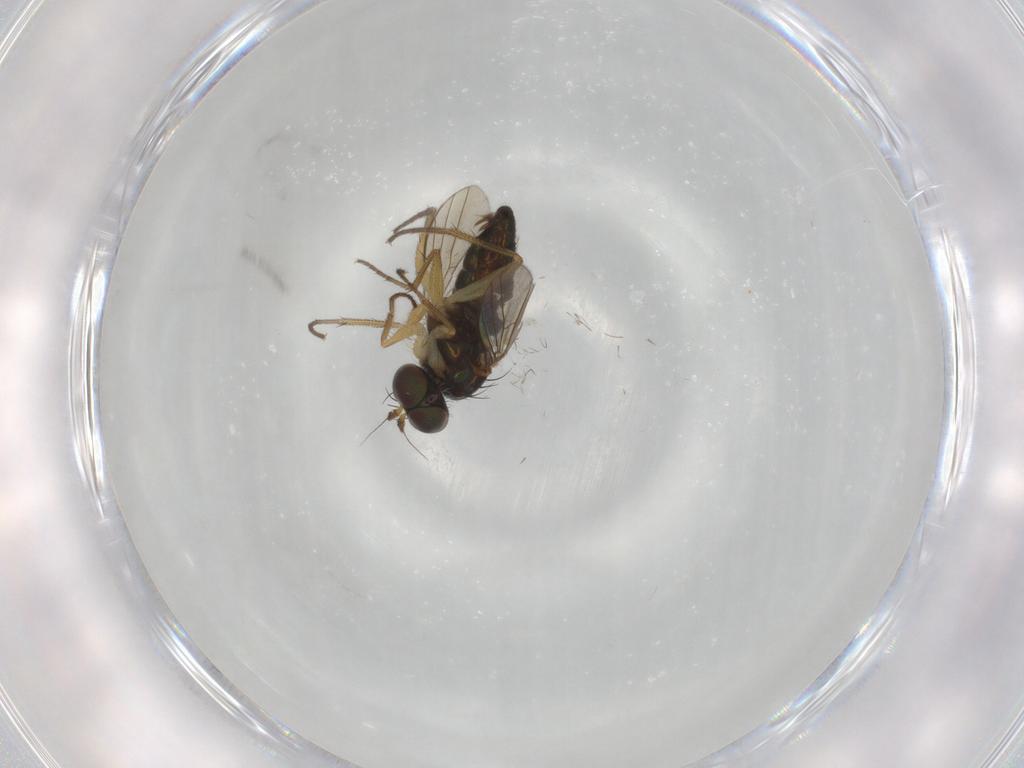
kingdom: Animalia
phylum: Arthropoda
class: Insecta
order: Diptera
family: Dolichopodidae
